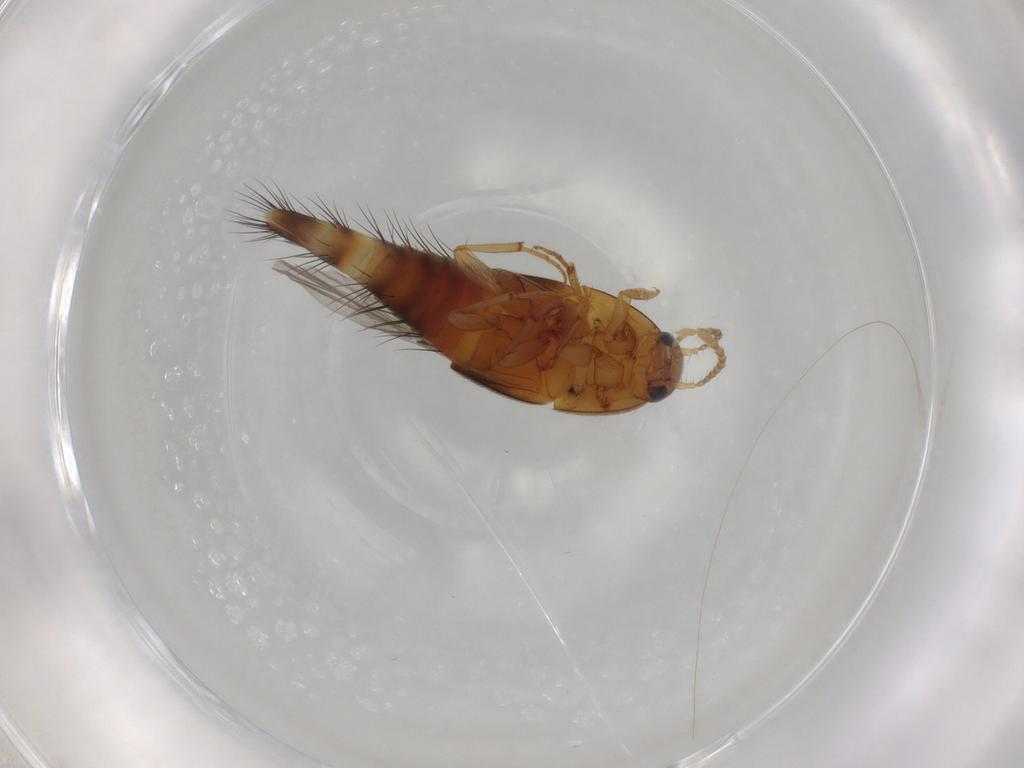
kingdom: Animalia
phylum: Arthropoda
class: Insecta
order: Coleoptera
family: Staphylinidae
